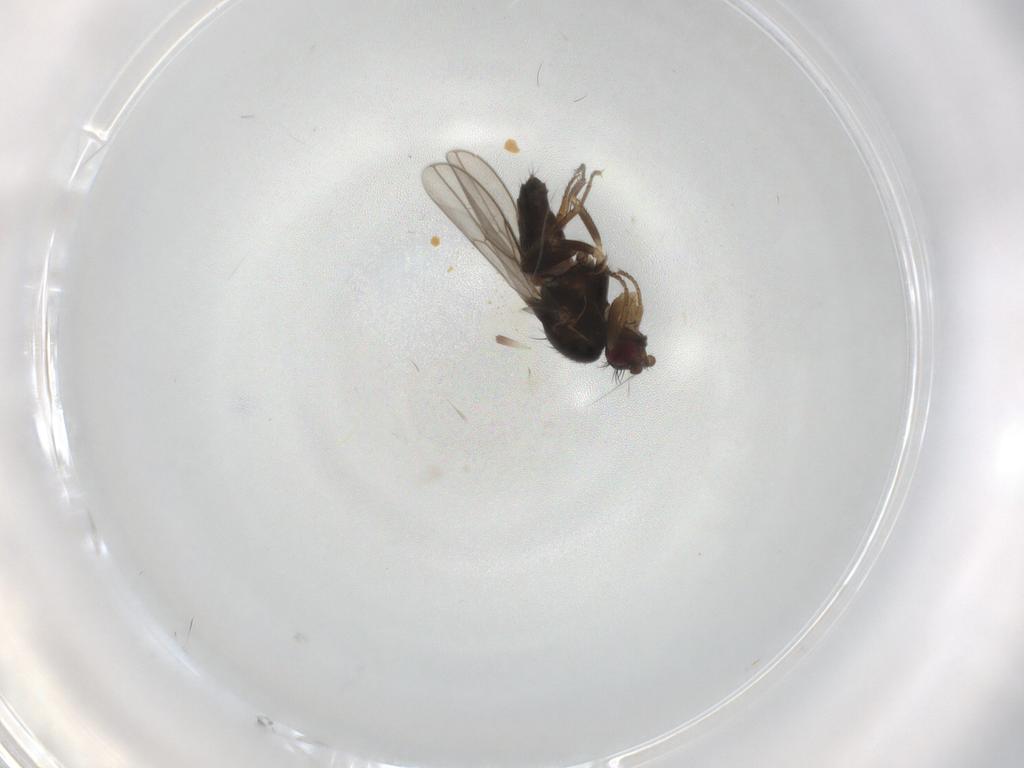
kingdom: Animalia
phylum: Arthropoda
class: Insecta
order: Diptera
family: Sphaeroceridae
